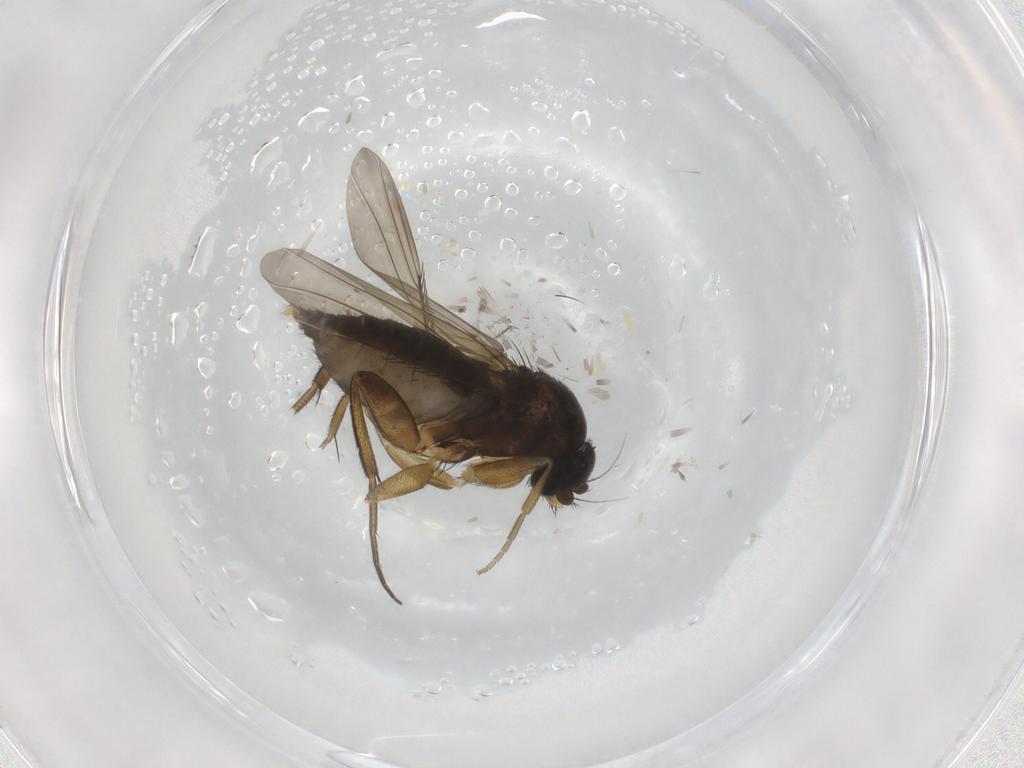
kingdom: Animalia
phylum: Arthropoda
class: Insecta
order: Diptera
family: Phoridae
